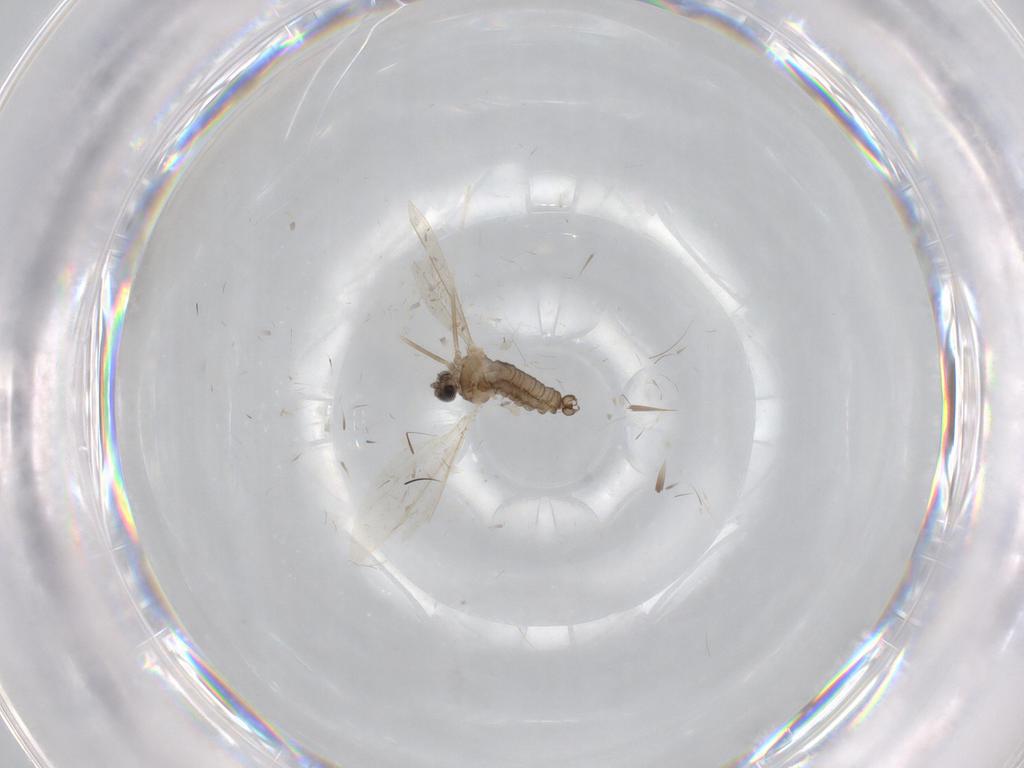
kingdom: Animalia
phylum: Arthropoda
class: Insecta
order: Diptera
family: Cecidomyiidae
